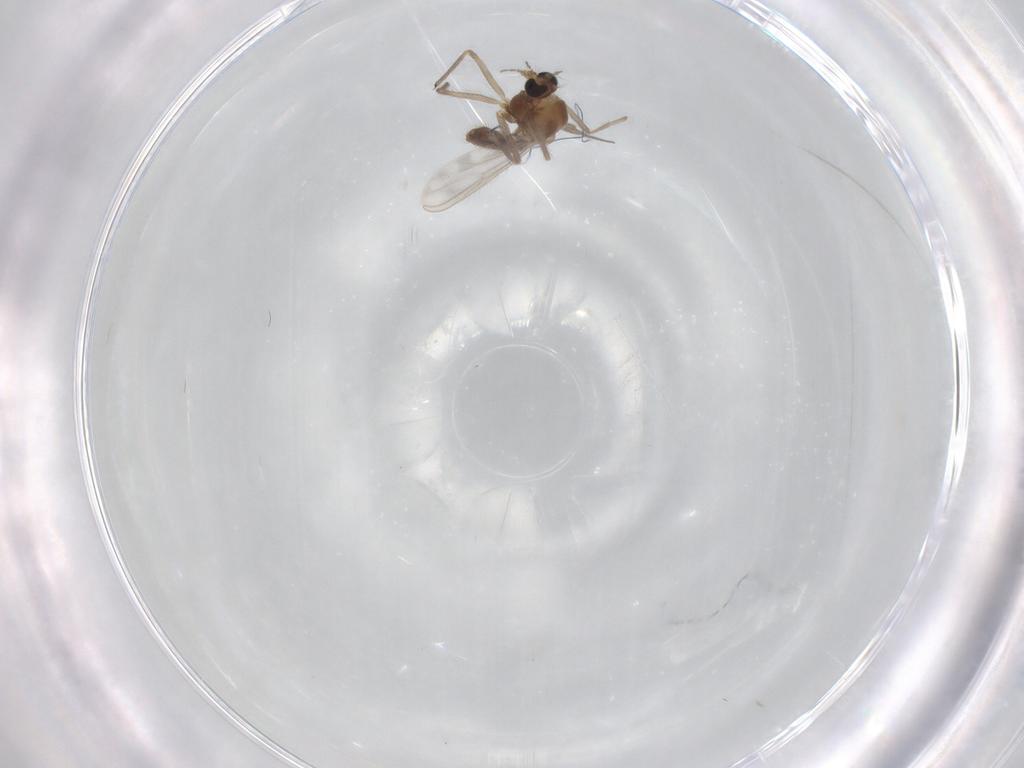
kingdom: Animalia
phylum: Arthropoda
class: Insecta
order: Diptera
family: Chironomidae
